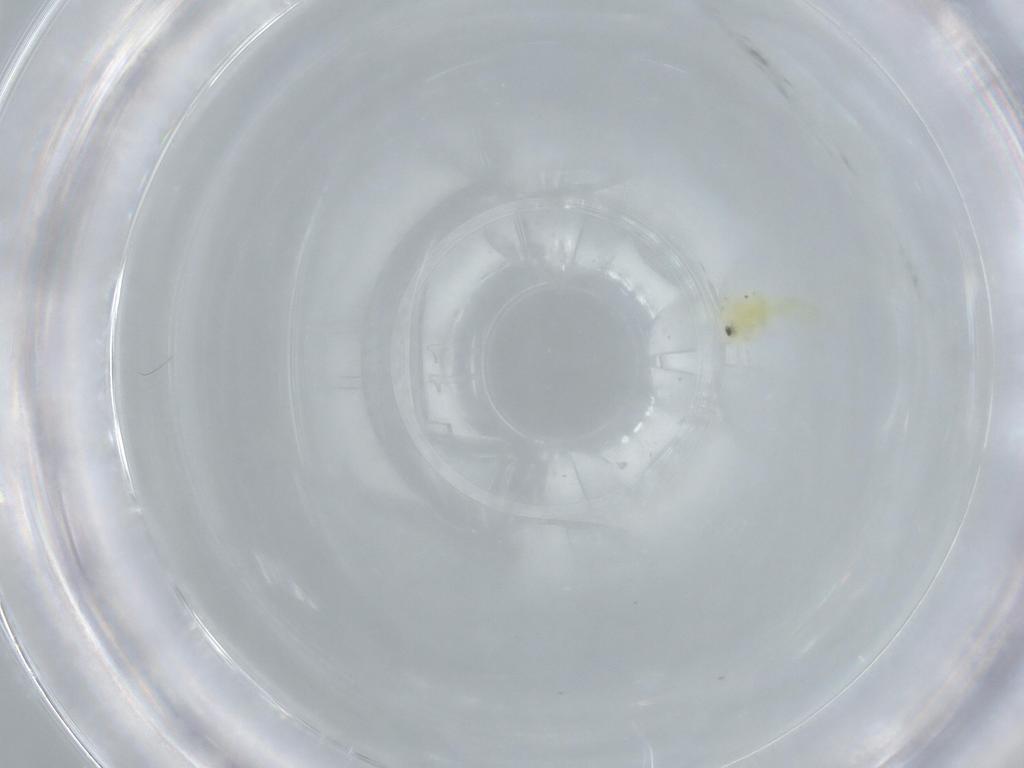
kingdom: Animalia
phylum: Arthropoda
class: Insecta
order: Hemiptera
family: Aleyrodidae
